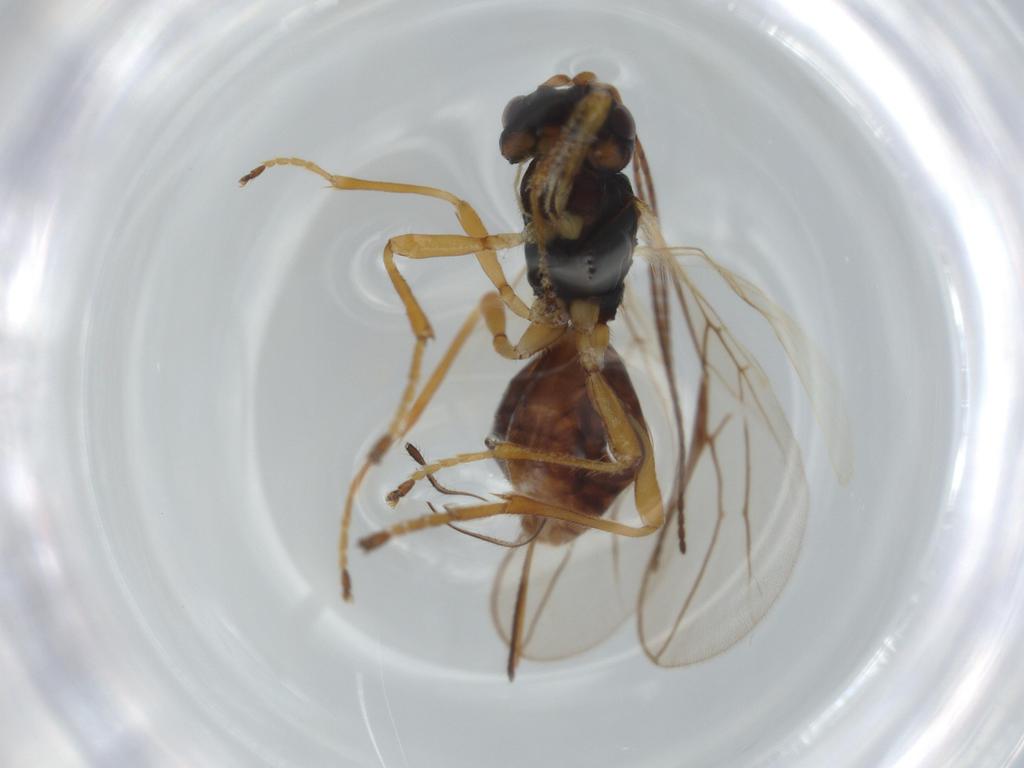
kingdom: Animalia
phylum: Arthropoda
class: Insecta
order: Hymenoptera
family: Braconidae
